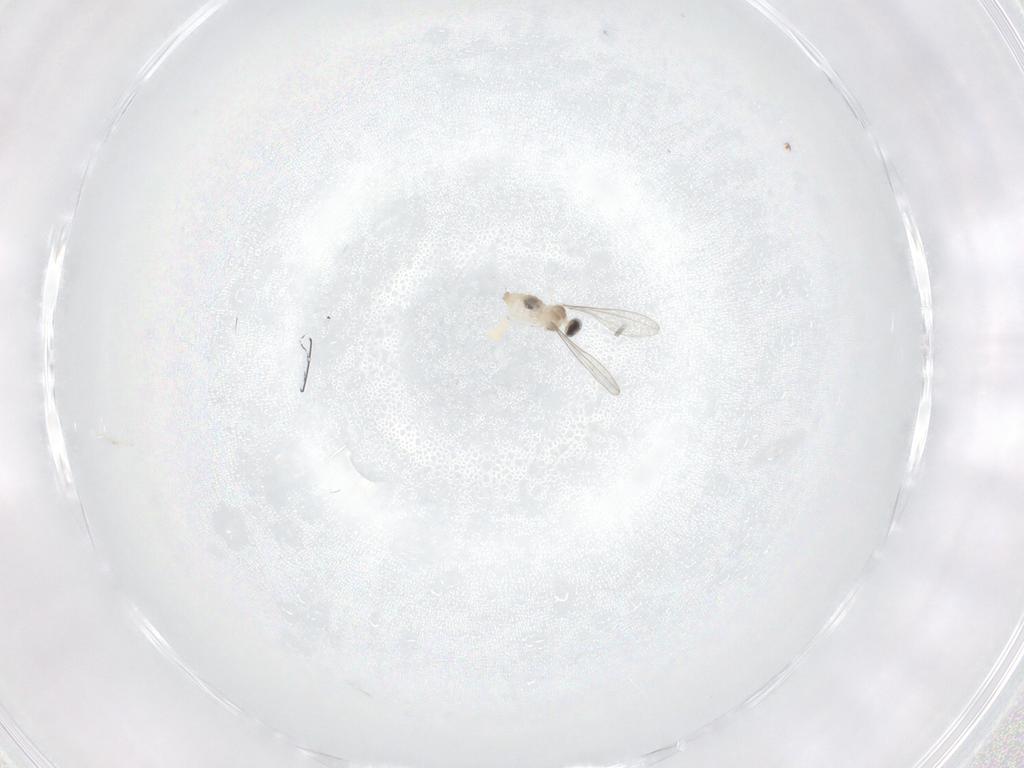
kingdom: Animalia
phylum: Arthropoda
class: Insecta
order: Diptera
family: Cecidomyiidae
